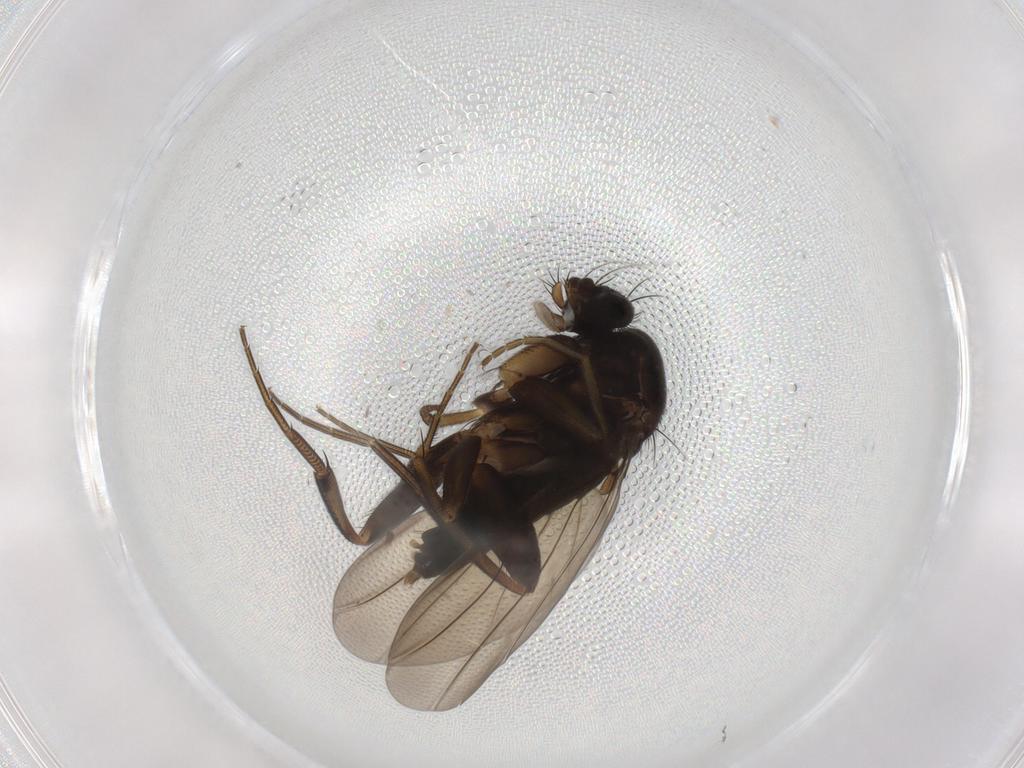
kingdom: Animalia
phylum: Arthropoda
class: Insecta
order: Diptera
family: Phoridae
